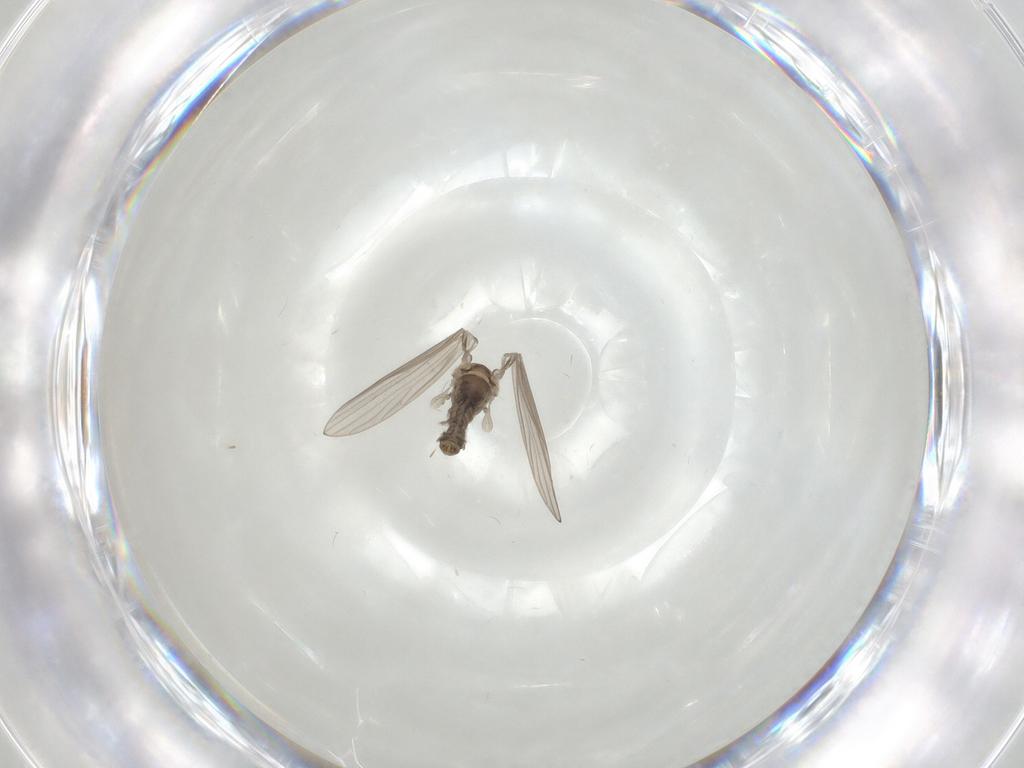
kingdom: Animalia
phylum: Arthropoda
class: Insecta
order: Diptera
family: Psychodidae
